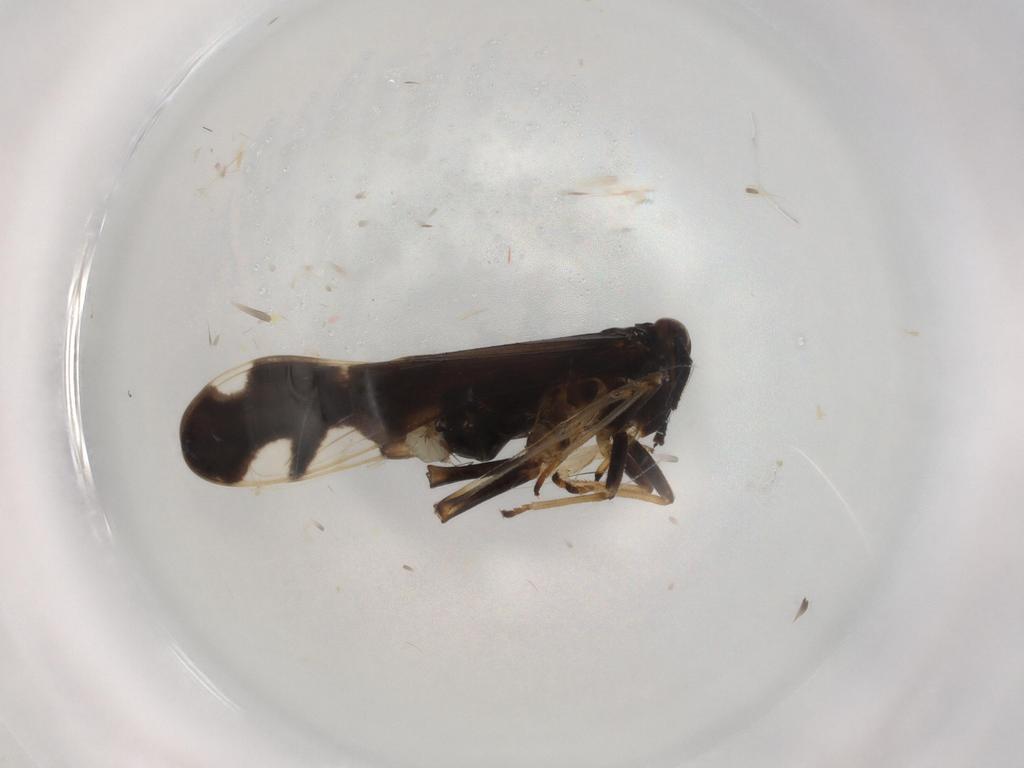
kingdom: Animalia
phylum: Arthropoda
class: Insecta
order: Hemiptera
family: Delphacidae
